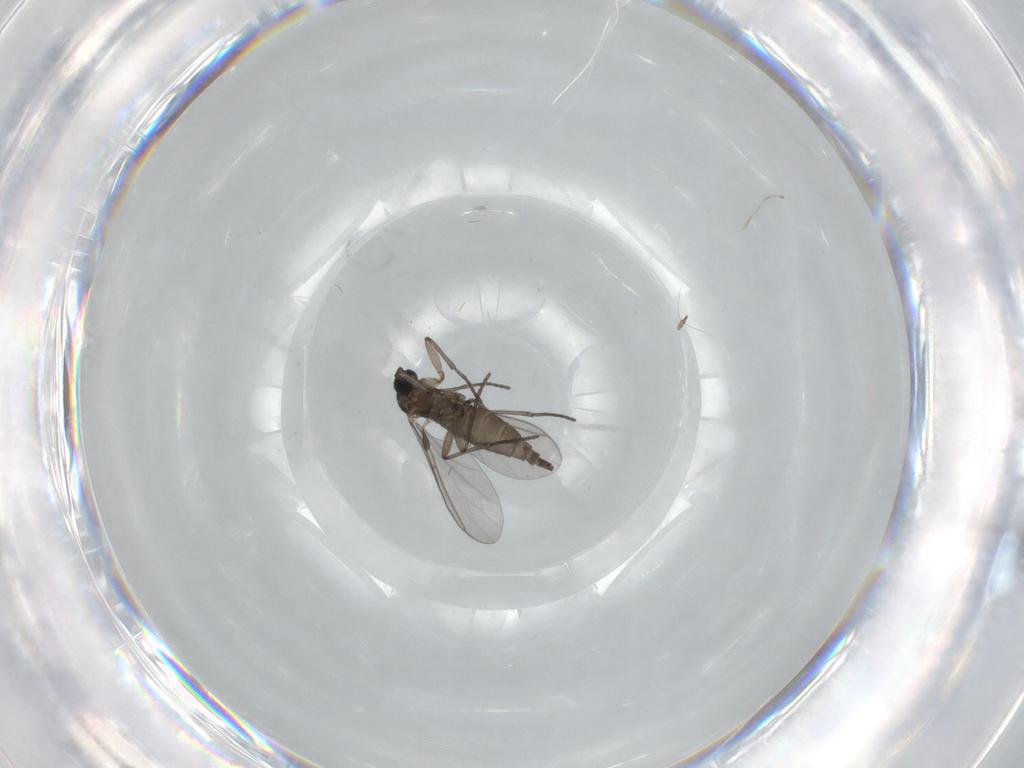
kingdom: Animalia
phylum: Arthropoda
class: Insecta
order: Diptera
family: Chironomidae
